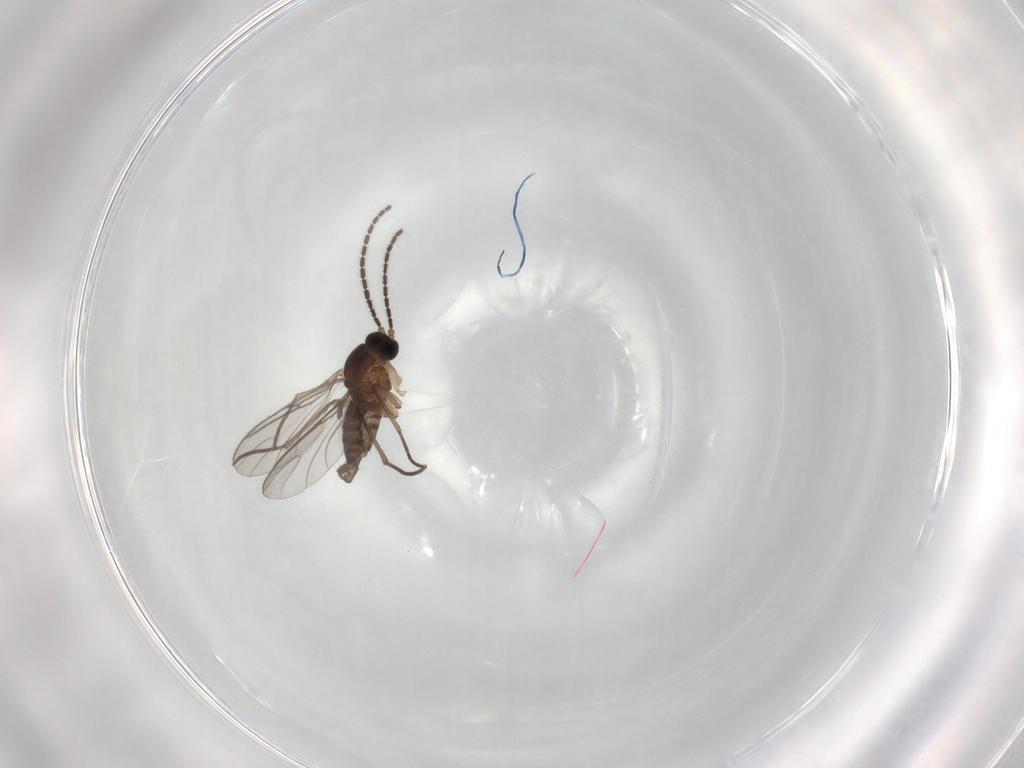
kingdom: Animalia
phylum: Arthropoda
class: Insecta
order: Diptera
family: Sciaridae
